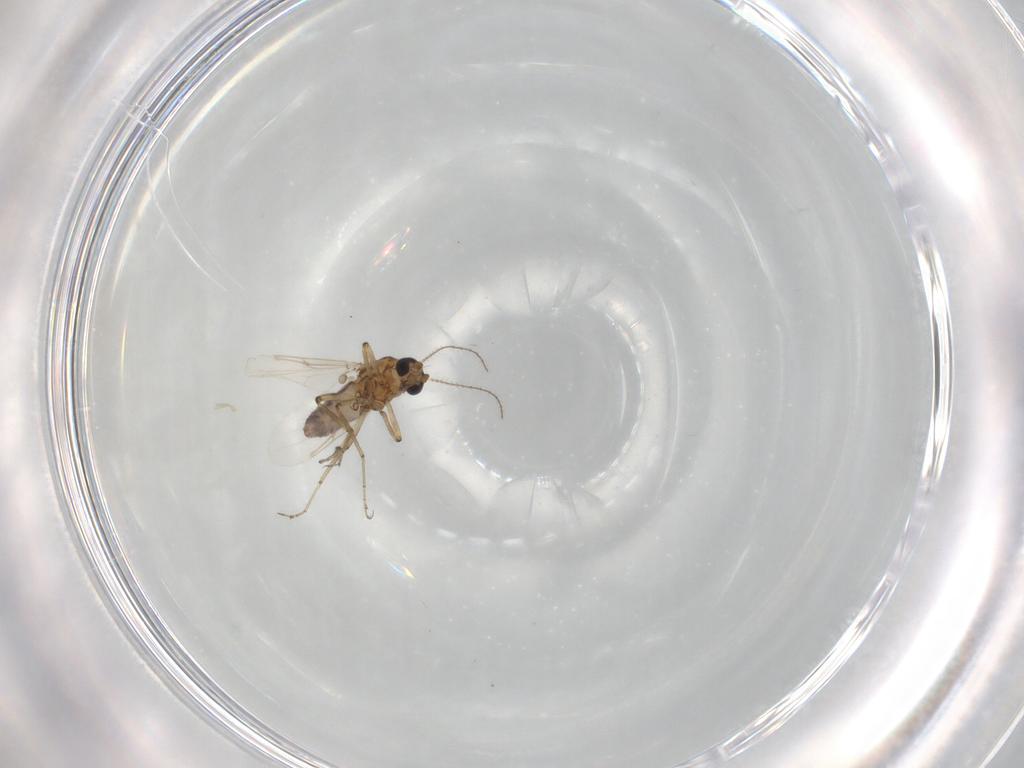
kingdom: Animalia
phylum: Arthropoda
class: Insecta
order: Diptera
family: Ceratopogonidae
